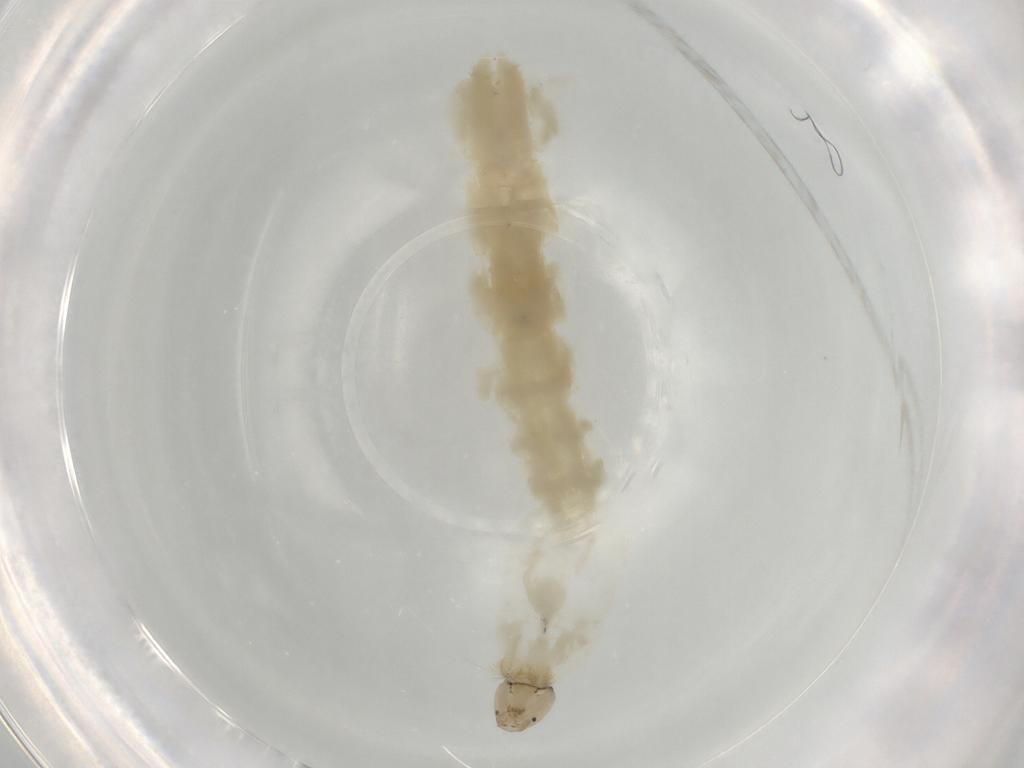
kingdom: Animalia
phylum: Arthropoda
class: Insecta
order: Diptera
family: Chironomidae
